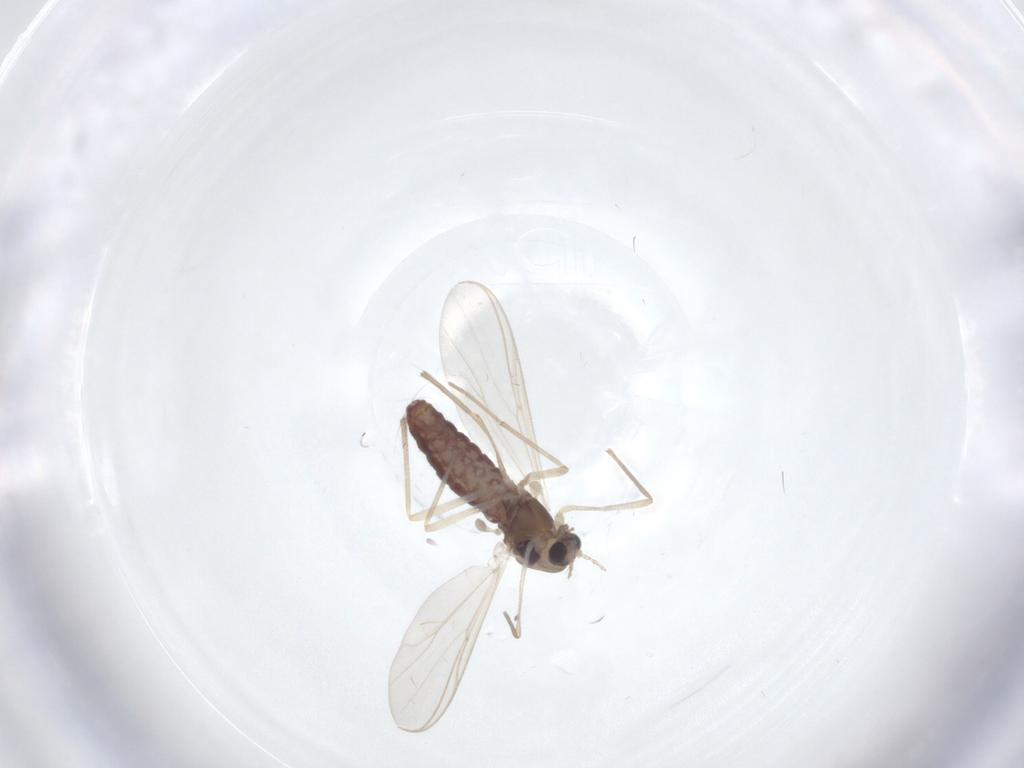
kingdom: Animalia
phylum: Arthropoda
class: Insecta
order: Diptera
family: Chironomidae
